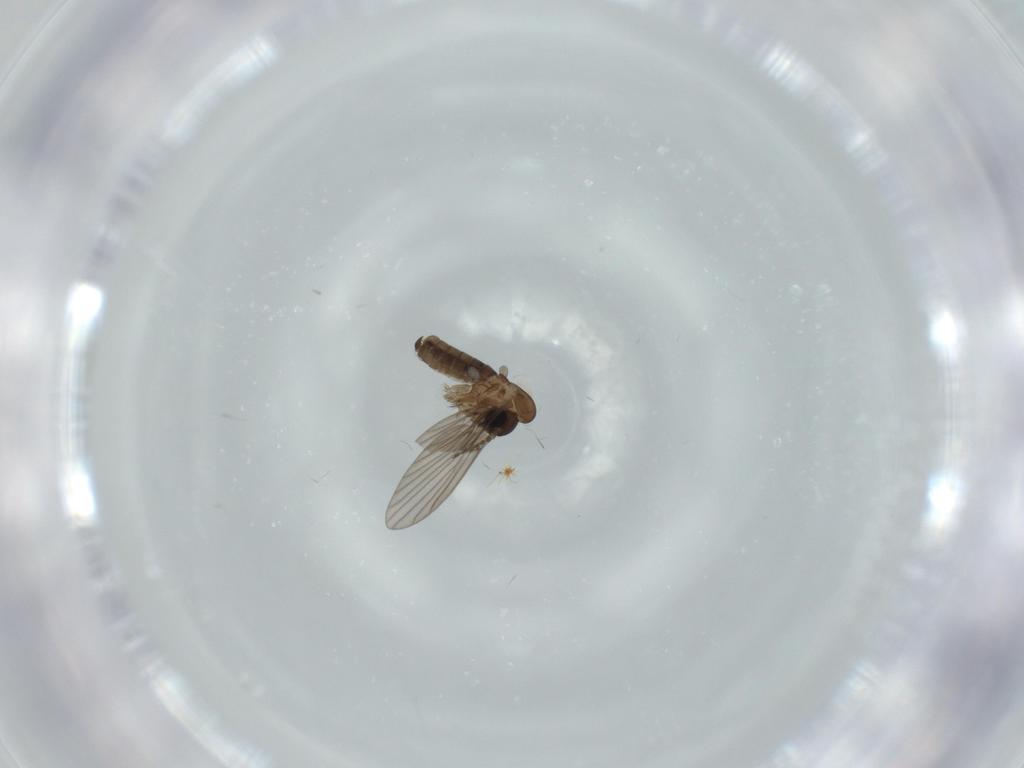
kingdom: Animalia
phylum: Arthropoda
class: Insecta
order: Diptera
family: Psychodidae
